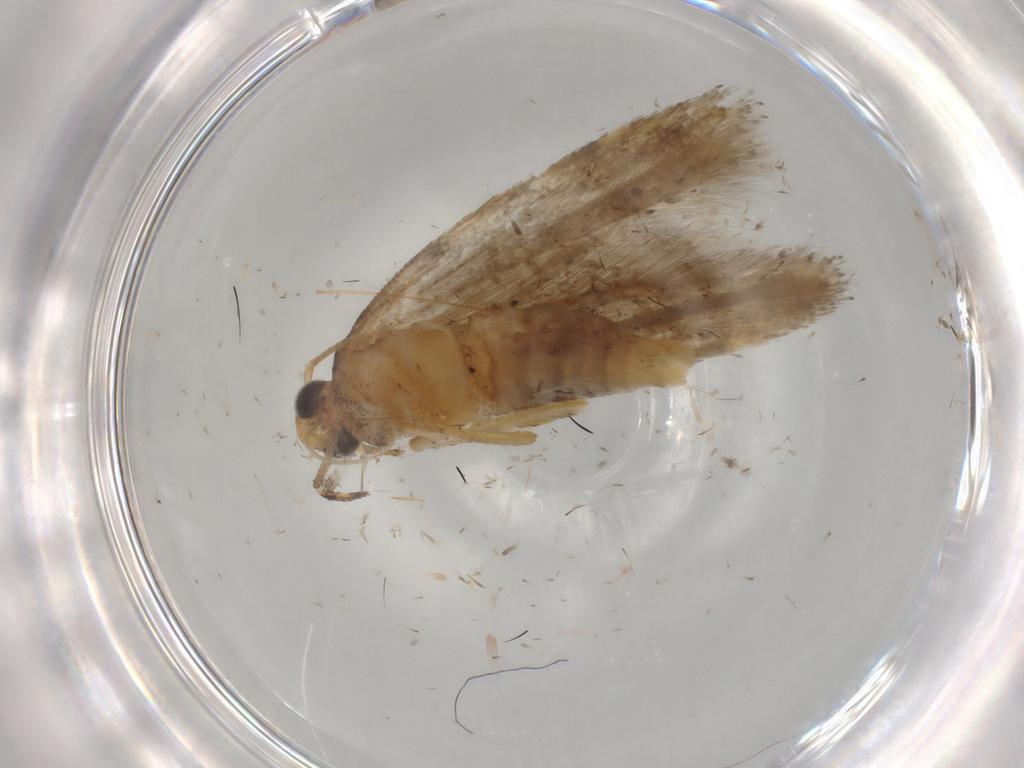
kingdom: Animalia
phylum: Arthropoda
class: Insecta
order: Lepidoptera
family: Gelechiidae
